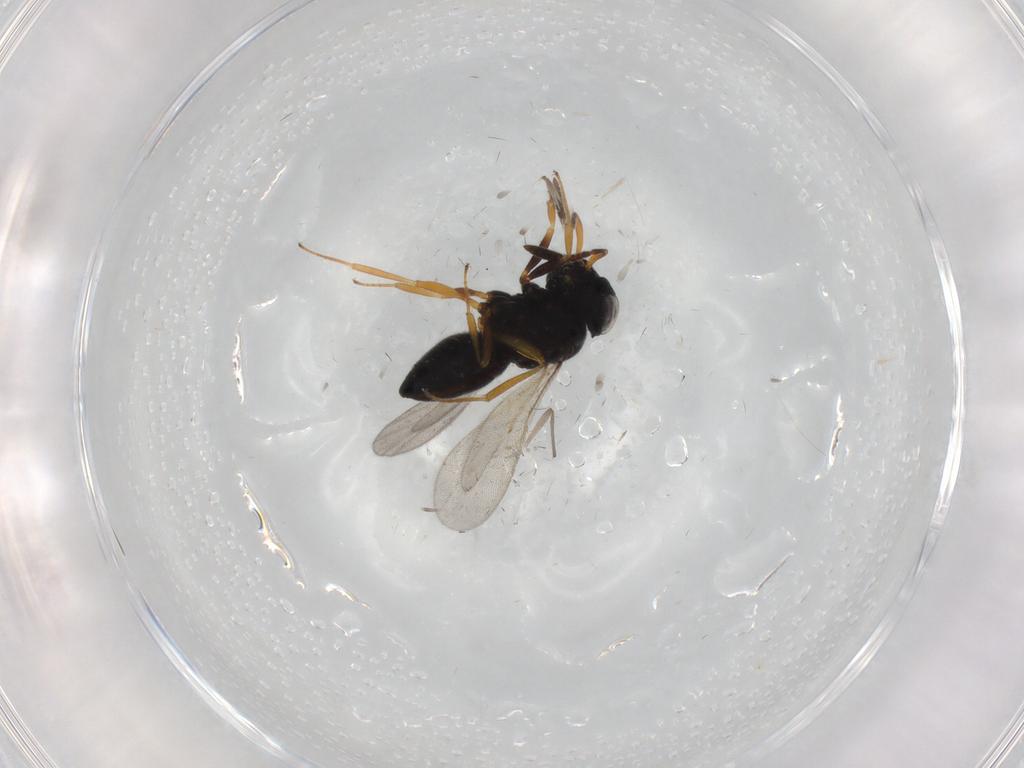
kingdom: Animalia
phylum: Arthropoda
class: Insecta
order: Hymenoptera
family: Scelionidae
